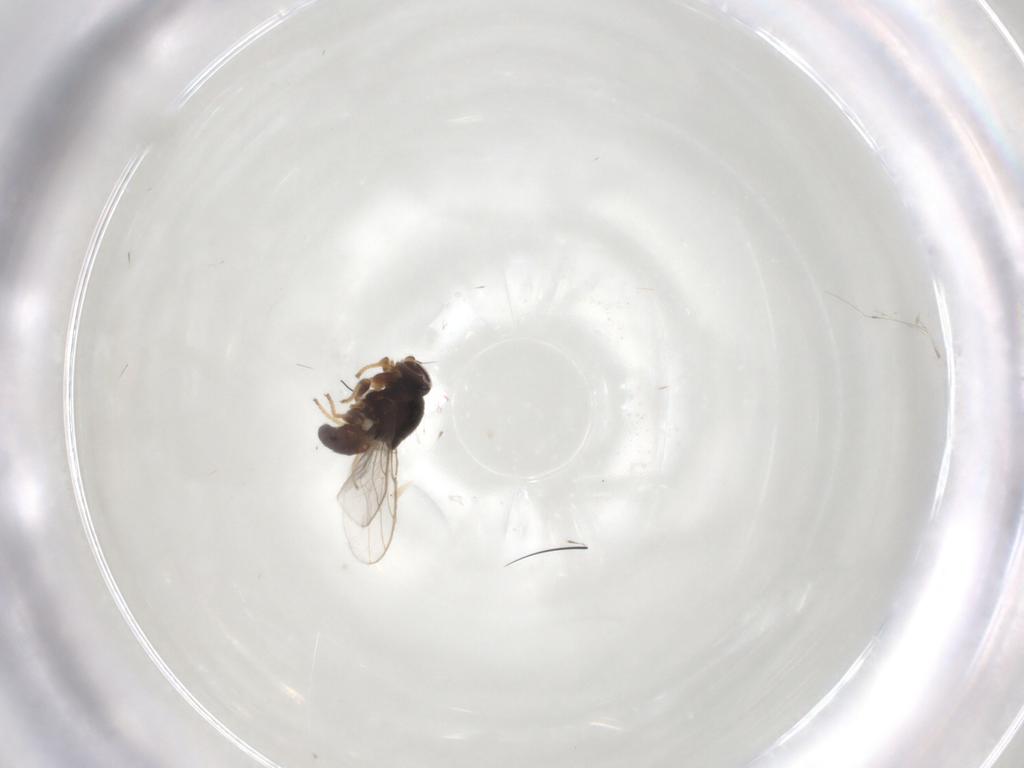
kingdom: Animalia
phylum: Arthropoda
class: Insecta
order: Diptera
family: Chloropidae
